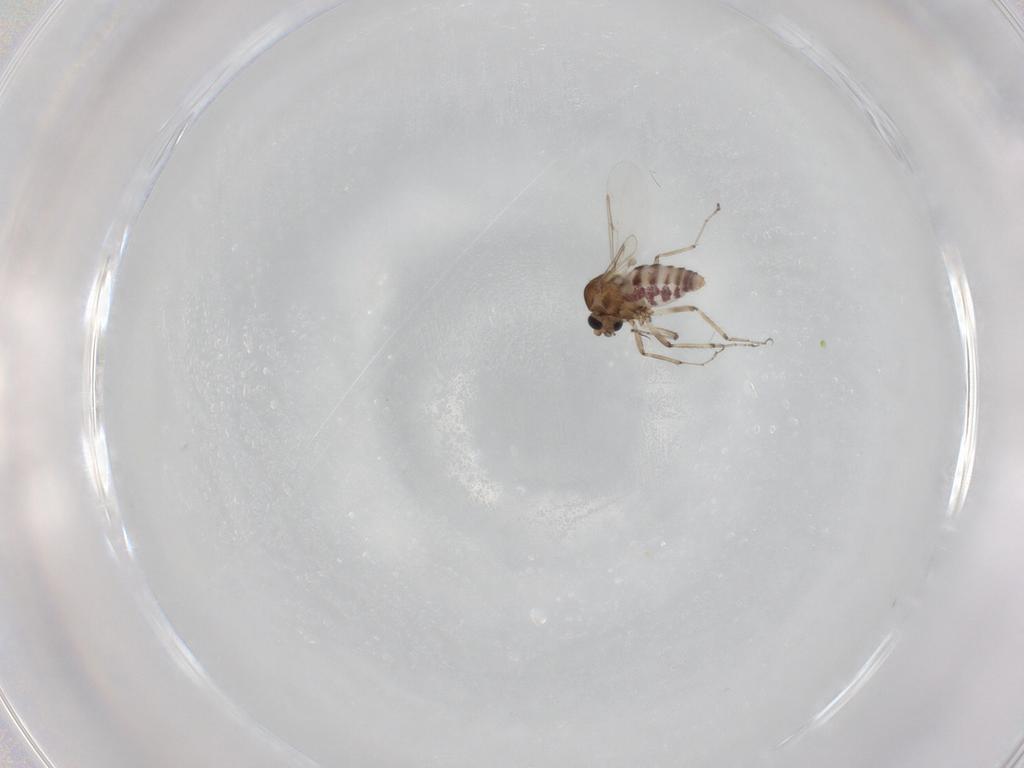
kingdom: Animalia
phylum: Arthropoda
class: Insecta
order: Diptera
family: Ceratopogonidae
